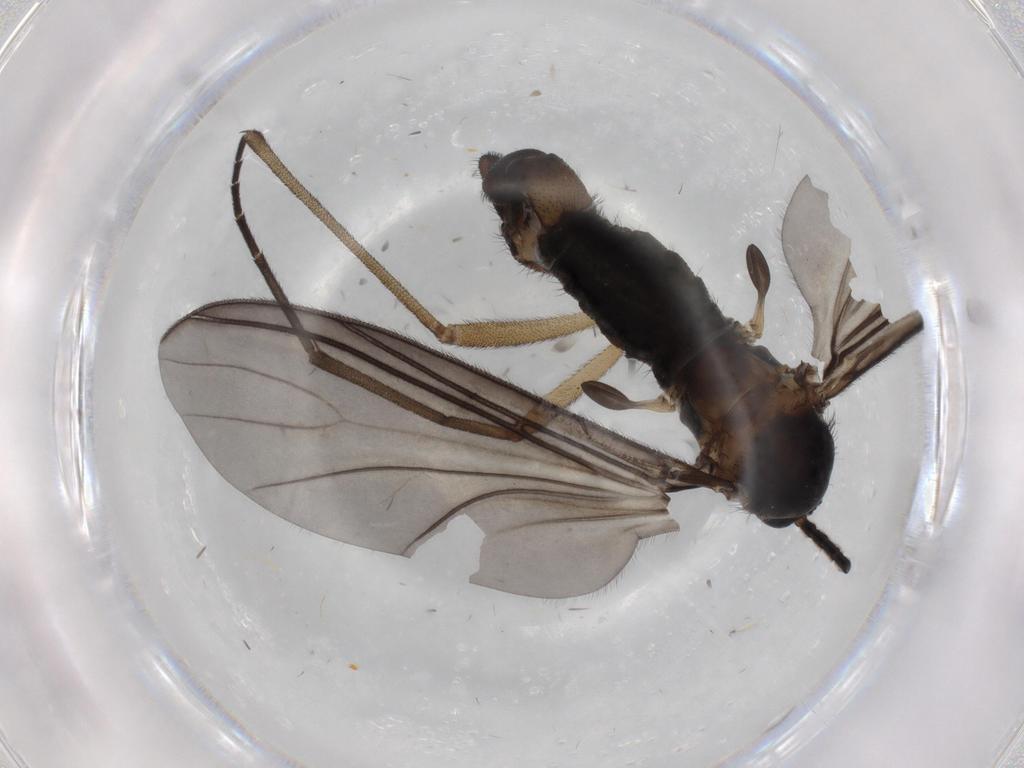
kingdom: Animalia
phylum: Arthropoda
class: Insecta
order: Diptera
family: Sciaridae
